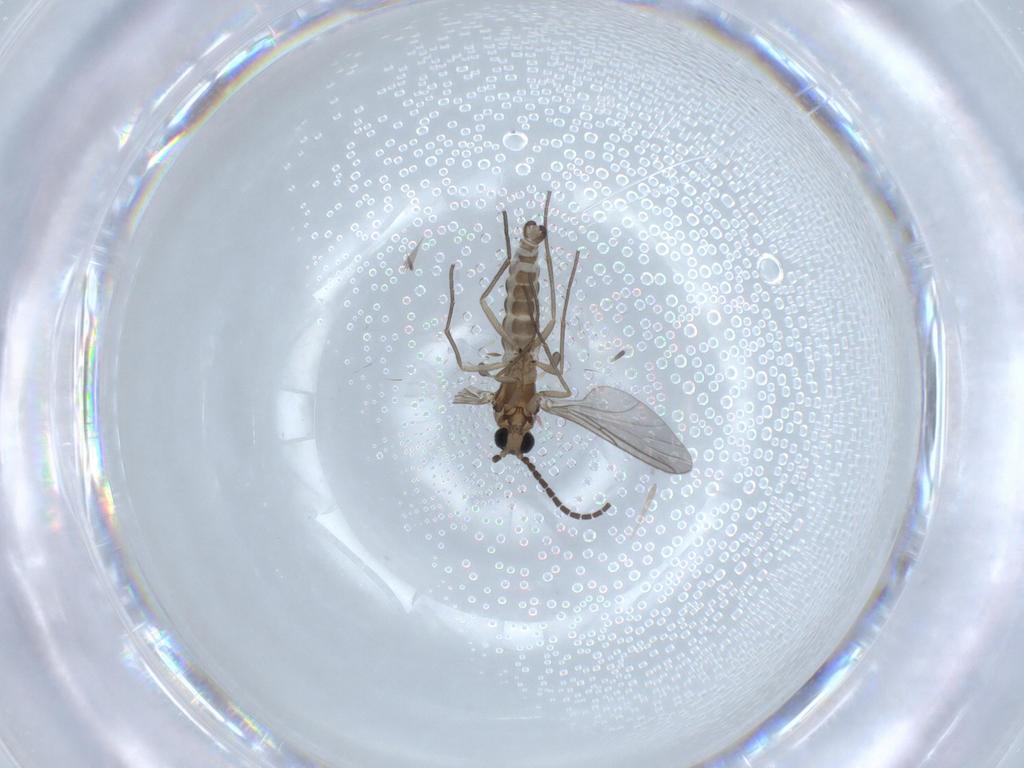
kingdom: Animalia
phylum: Arthropoda
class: Insecta
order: Diptera
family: Sciaridae
